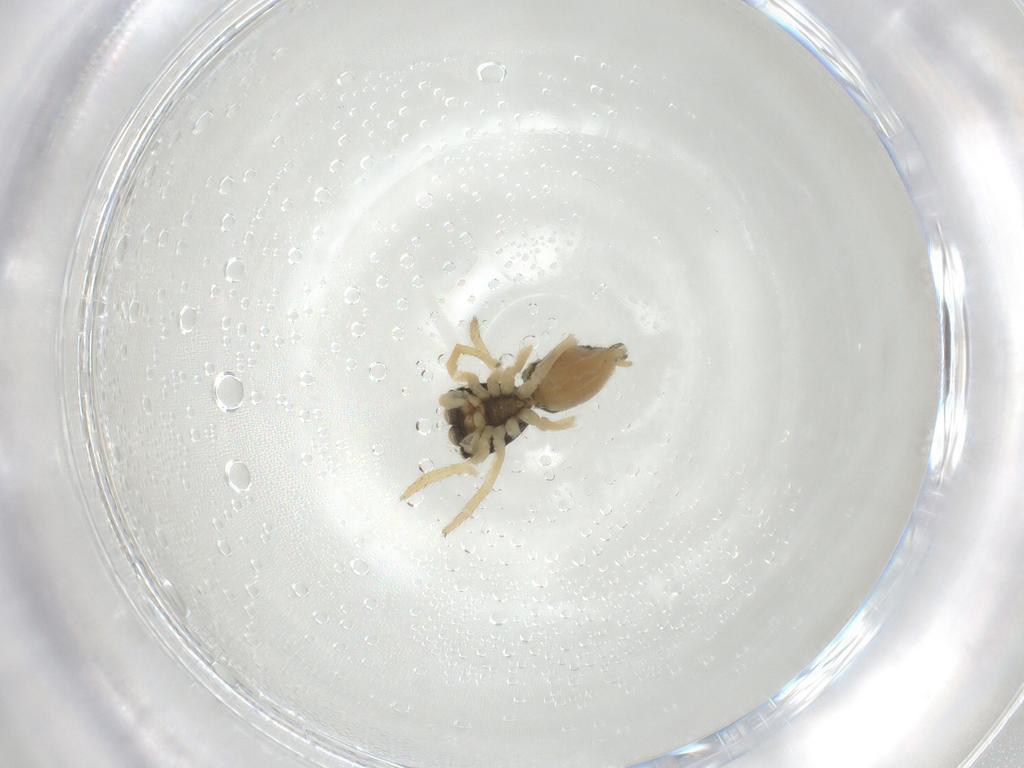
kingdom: Animalia
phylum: Arthropoda
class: Arachnida
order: Araneae
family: Salticidae
